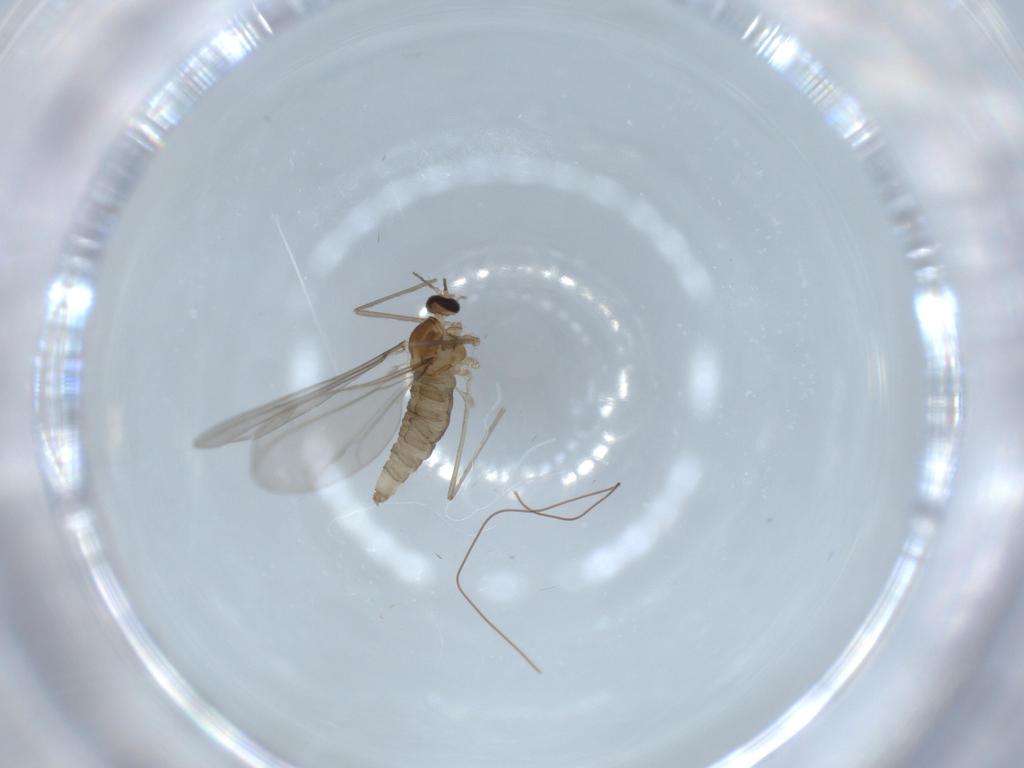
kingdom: Animalia
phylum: Arthropoda
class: Insecta
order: Diptera
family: Cecidomyiidae
